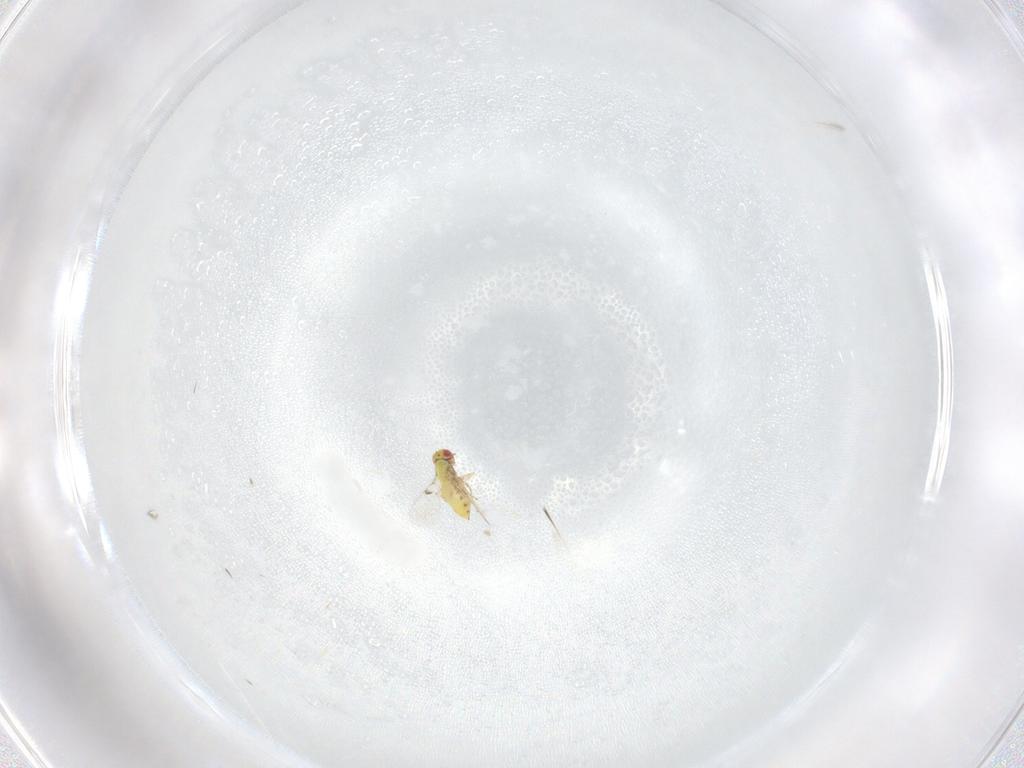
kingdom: Animalia
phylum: Arthropoda
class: Insecta
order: Hymenoptera
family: Trichogrammatidae
